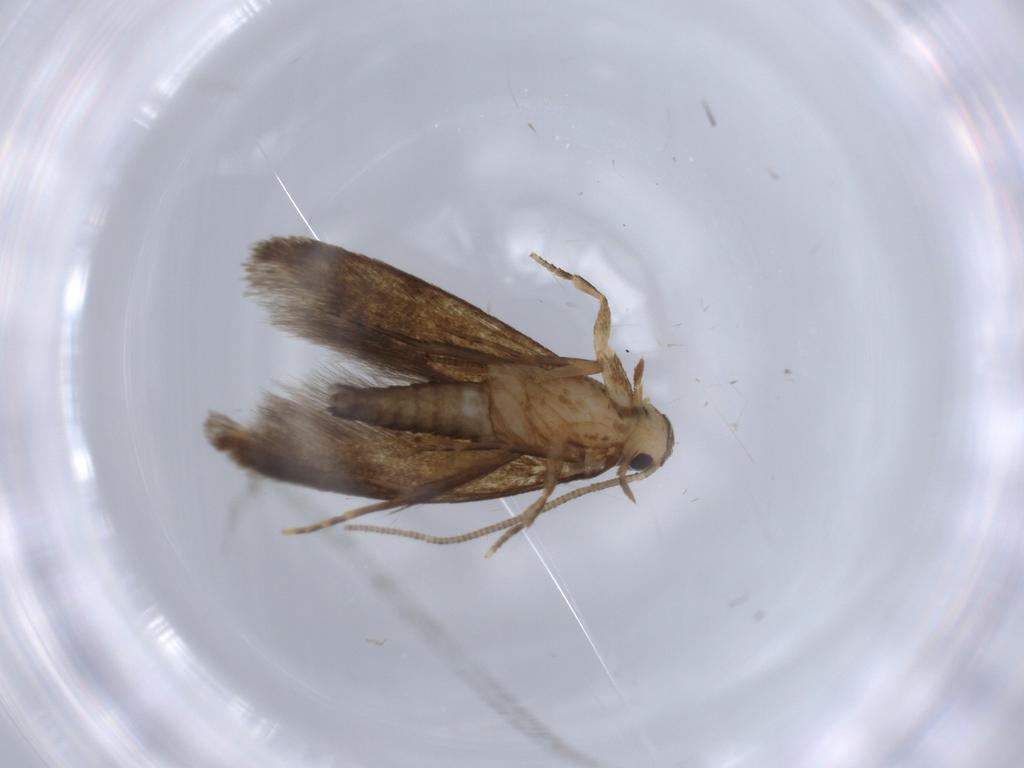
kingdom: Animalia
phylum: Arthropoda
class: Insecta
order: Lepidoptera
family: Tineidae
